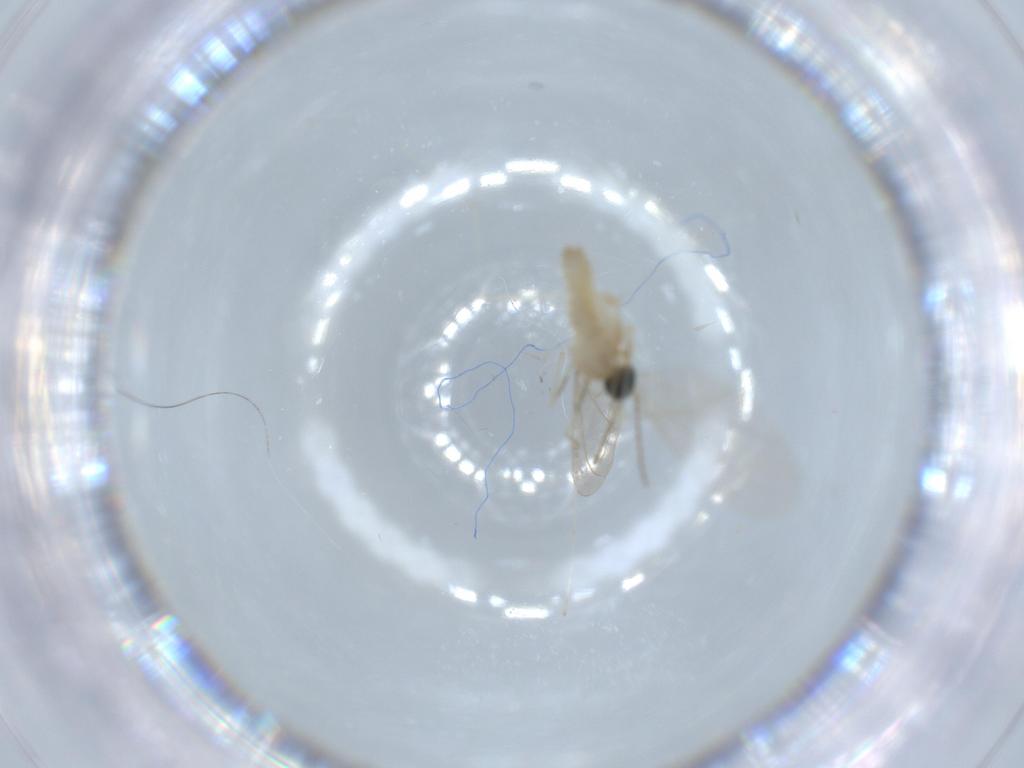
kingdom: Animalia
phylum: Arthropoda
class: Insecta
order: Diptera
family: Cecidomyiidae
